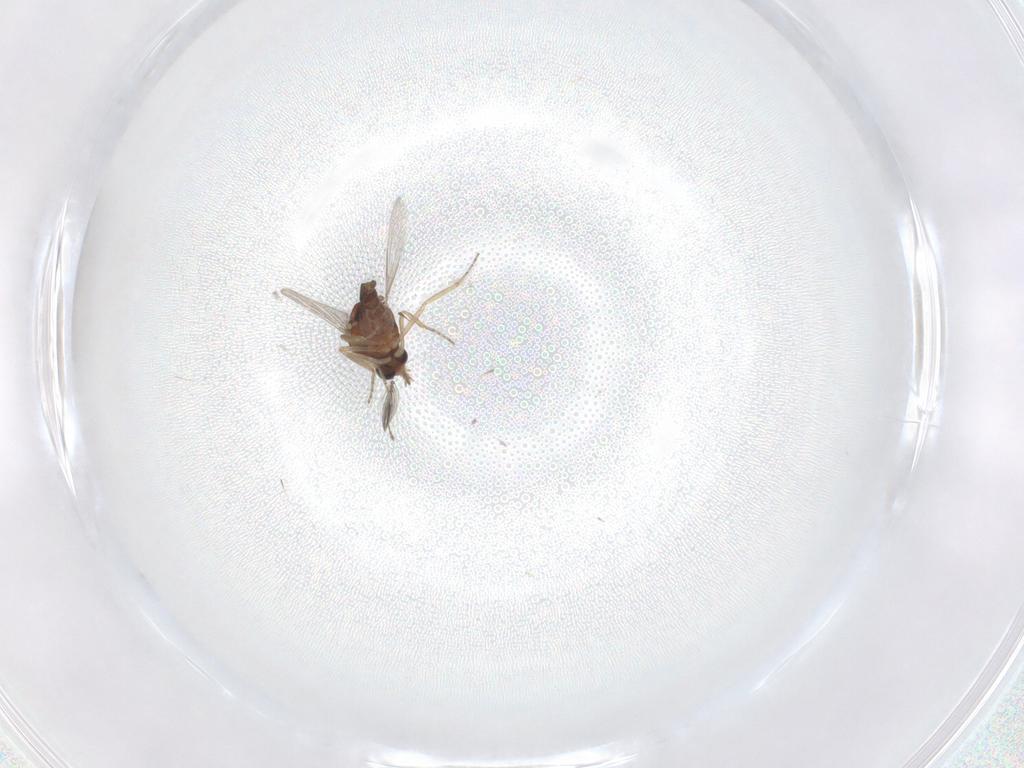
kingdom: Animalia
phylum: Arthropoda
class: Insecta
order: Diptera
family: Ceratopogonidae
